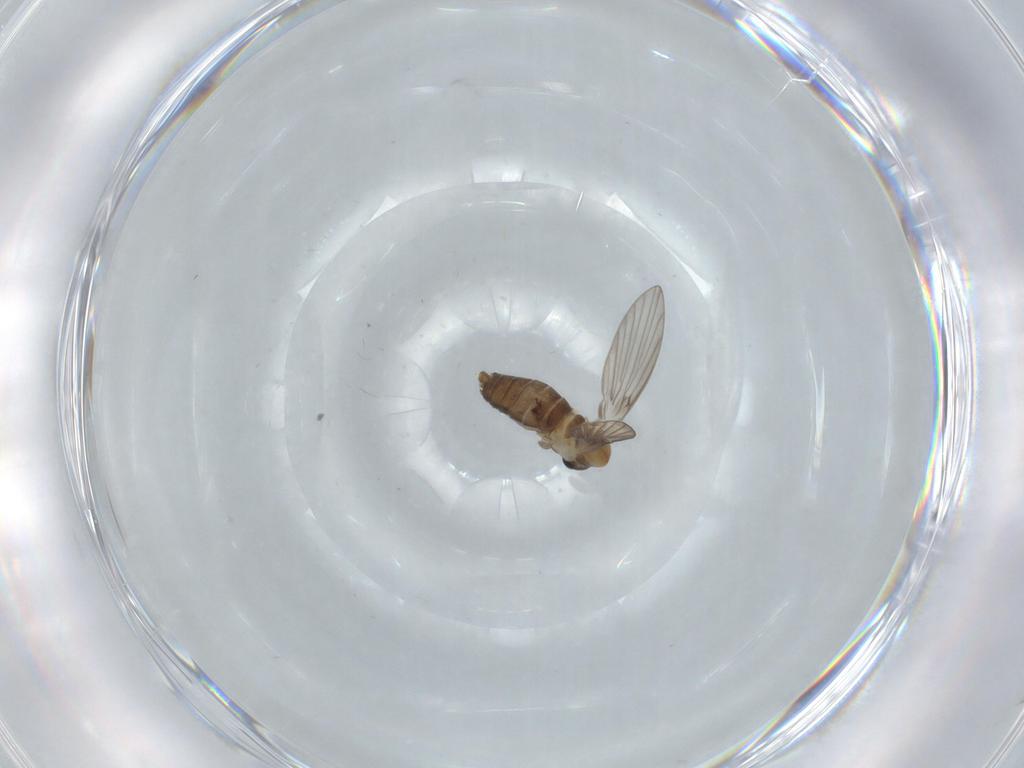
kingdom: Animalia
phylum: Arthropoda
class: Insecta
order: Diptera
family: Psychodidae
